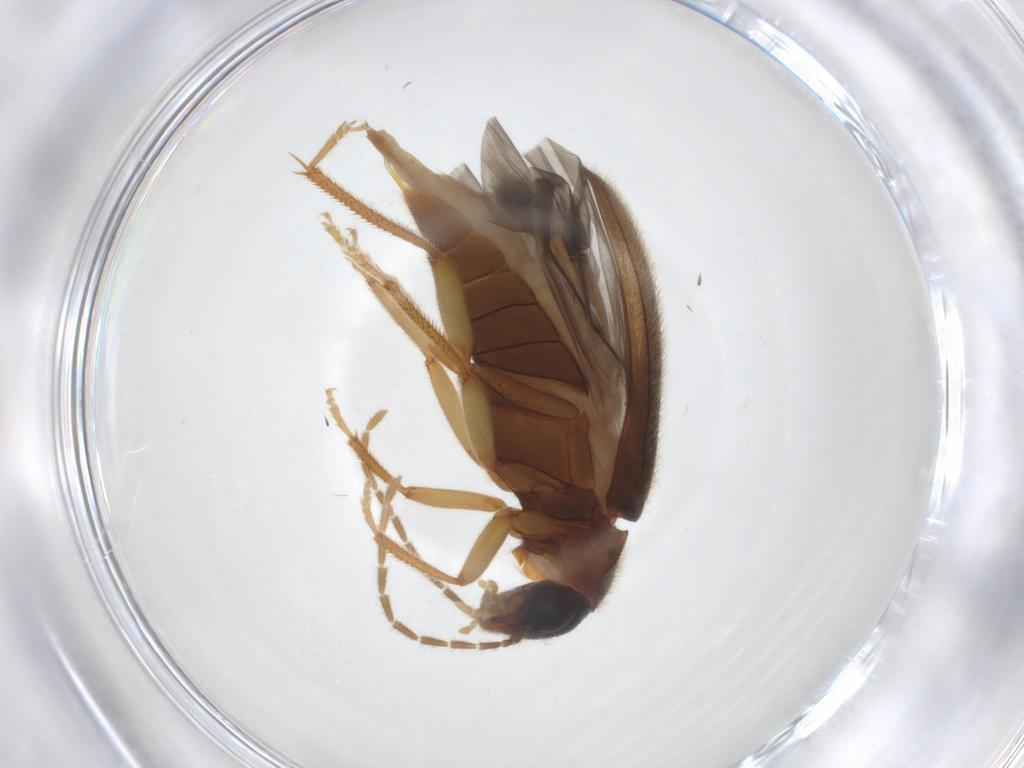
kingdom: Animalia
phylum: Arthropoda
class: Insecta
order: Coleoptera
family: Ptilodactylidae
